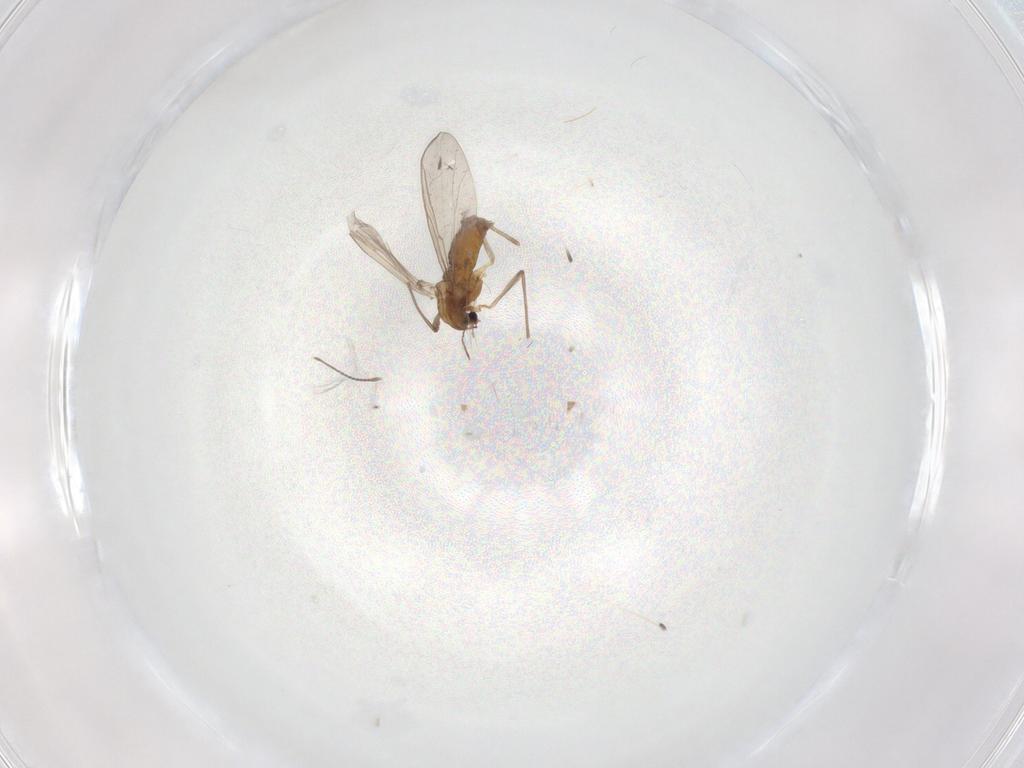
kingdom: Animalia
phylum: Arthropoda
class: Insecta
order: Diptera
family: Chironomidae
